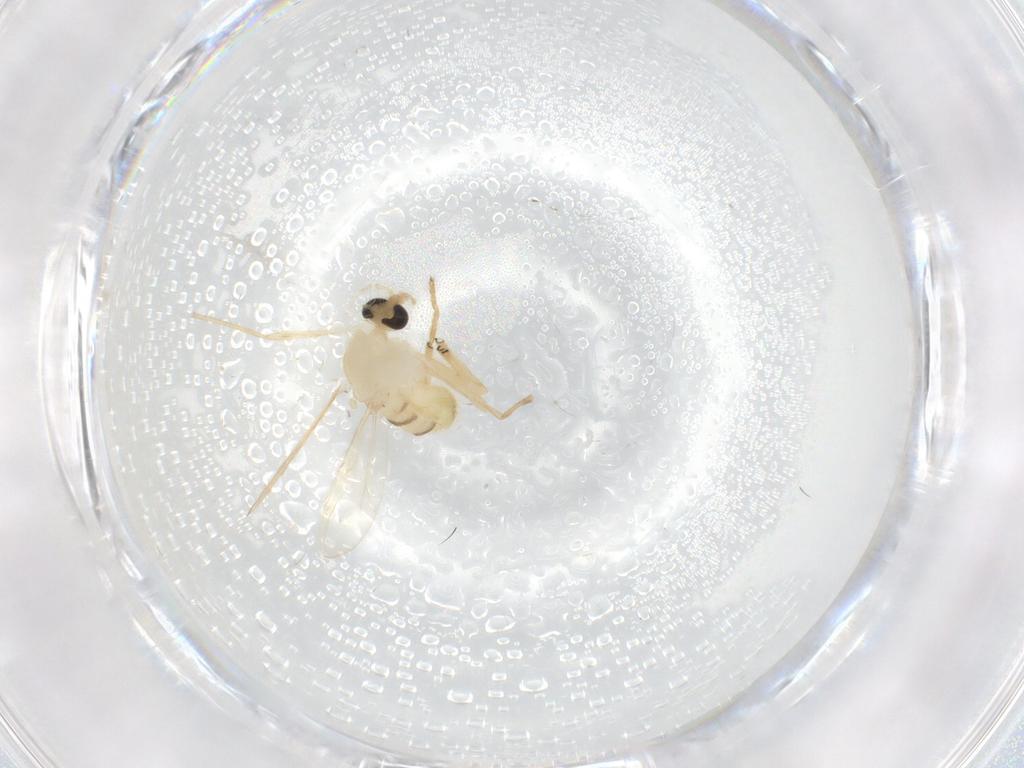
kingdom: Animalia
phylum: Arthropoda
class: Insecta
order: Diptera
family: Chironomidae
